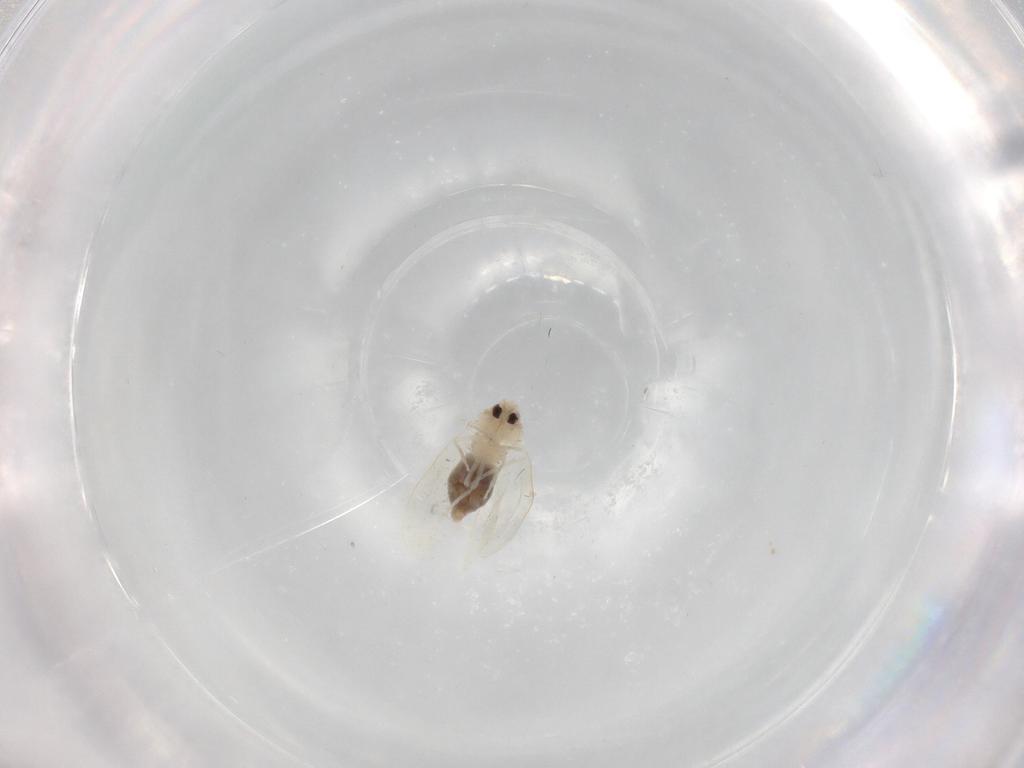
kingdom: Animalia
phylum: Arthropoda
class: Insecta
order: Hemiptera
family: Aleyrodidae
